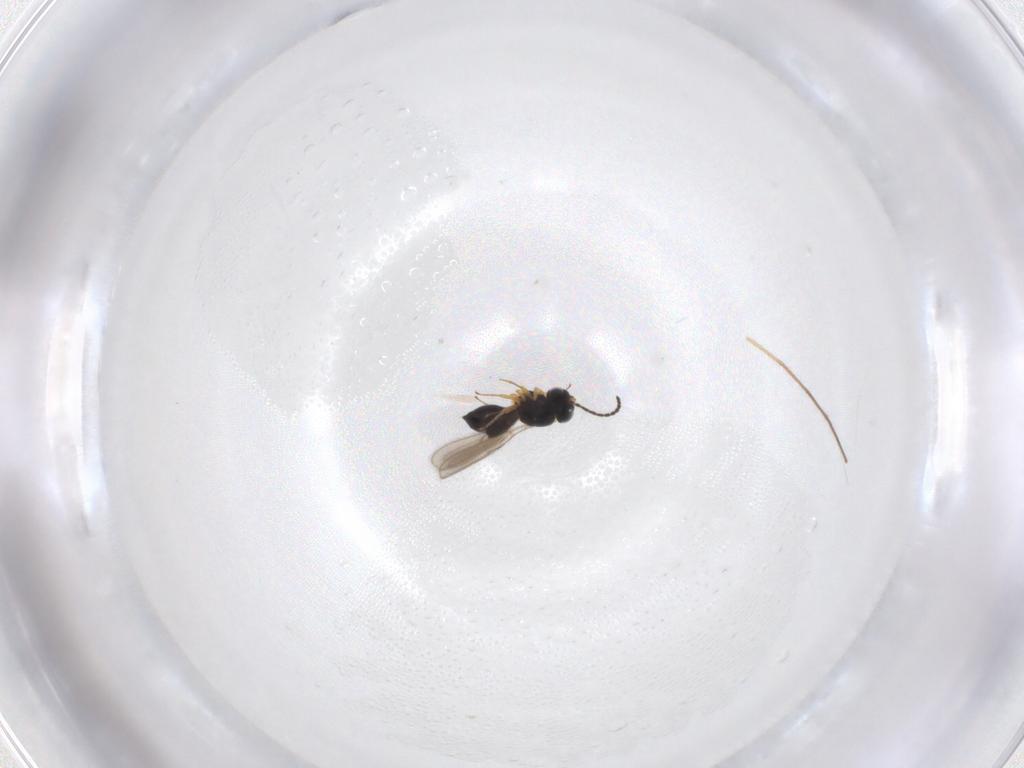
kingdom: Animalia
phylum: Arthropoda
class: Insecta
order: Hymenoptera
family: Scelionidae
